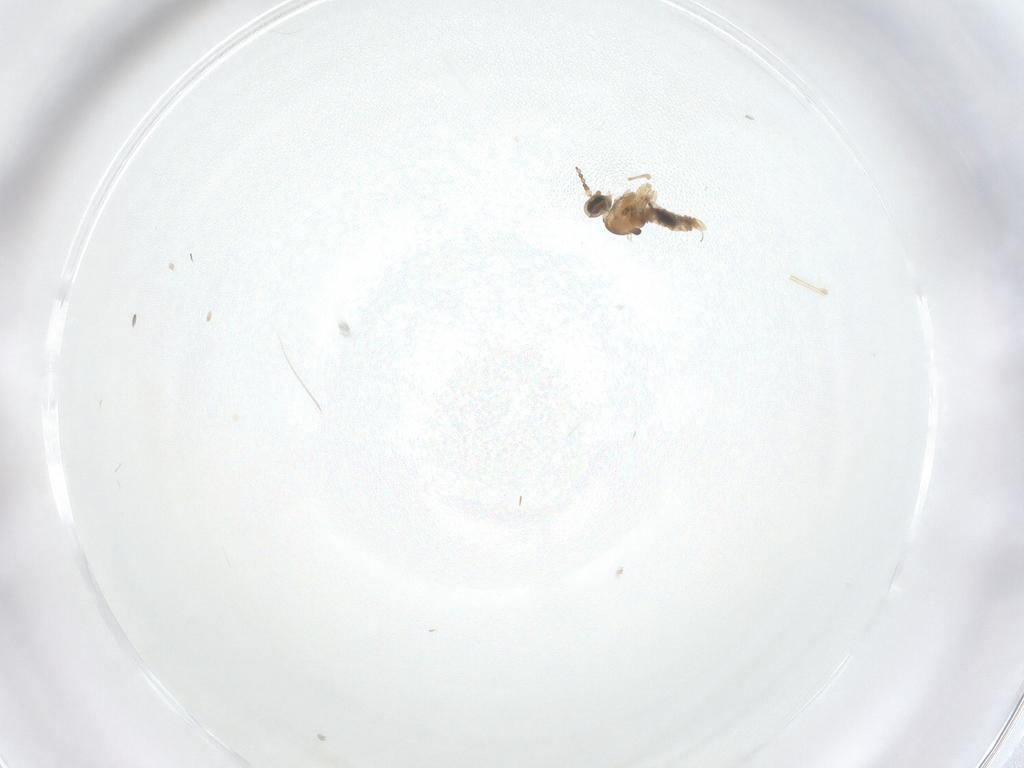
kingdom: Animalia
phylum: Arthropoda
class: Insecta
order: Diptera
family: Cecidomyiidae
